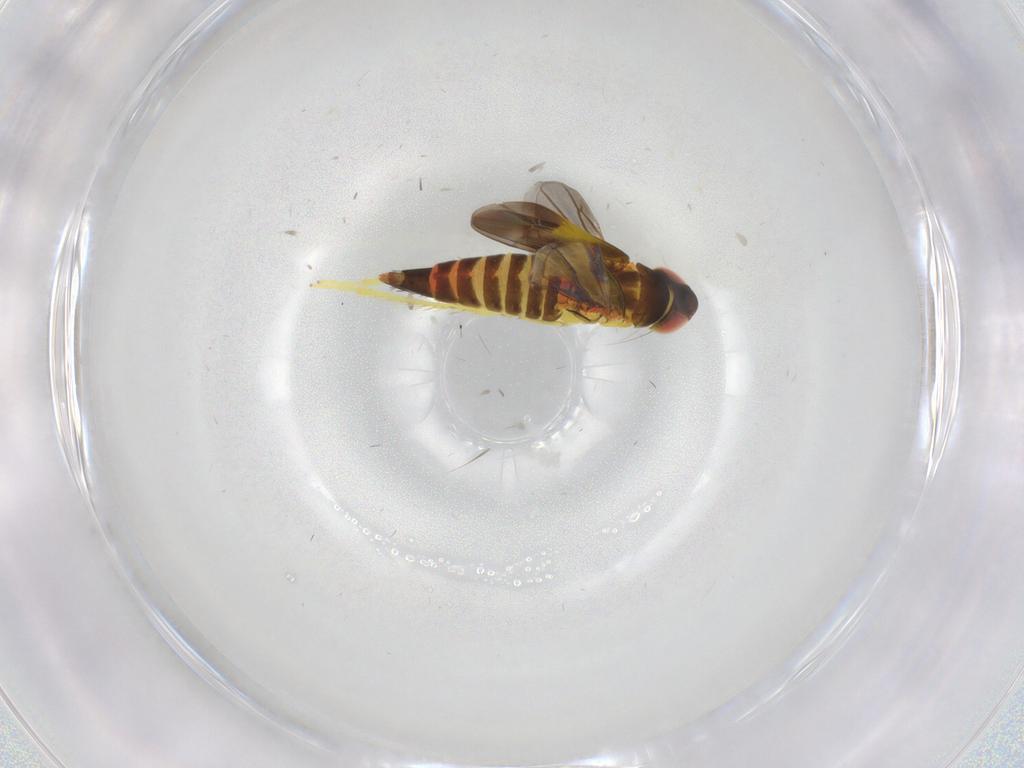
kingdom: Animalia
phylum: Arthropoda
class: Insecta
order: Hemiptera
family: Cicadellidae
